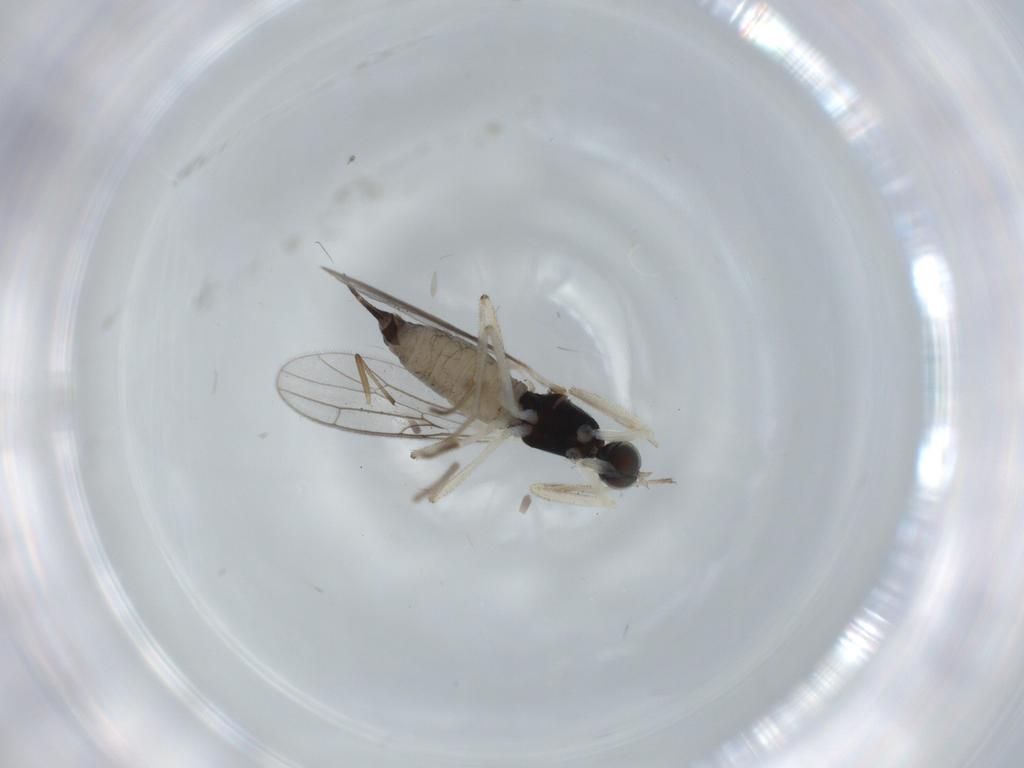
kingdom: Animalia
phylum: Arthropoda
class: Insecta
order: Diptera
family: Empididae
